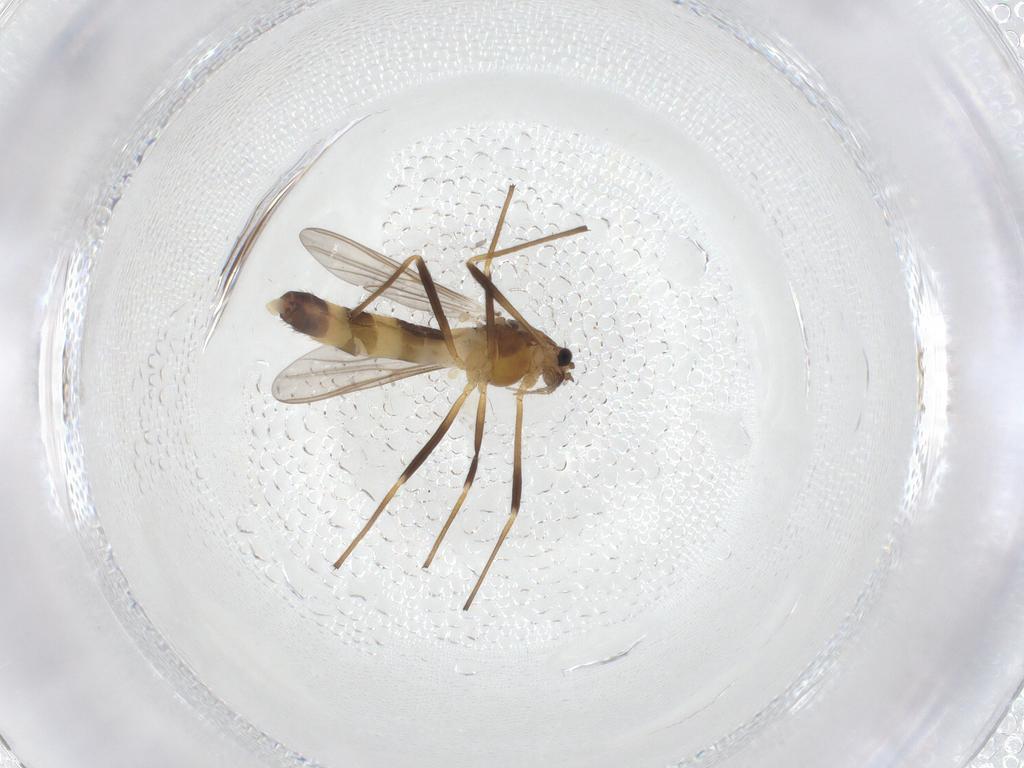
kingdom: Animalia
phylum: Arthropoda
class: Insecta
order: Diptera
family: Chironomidae
